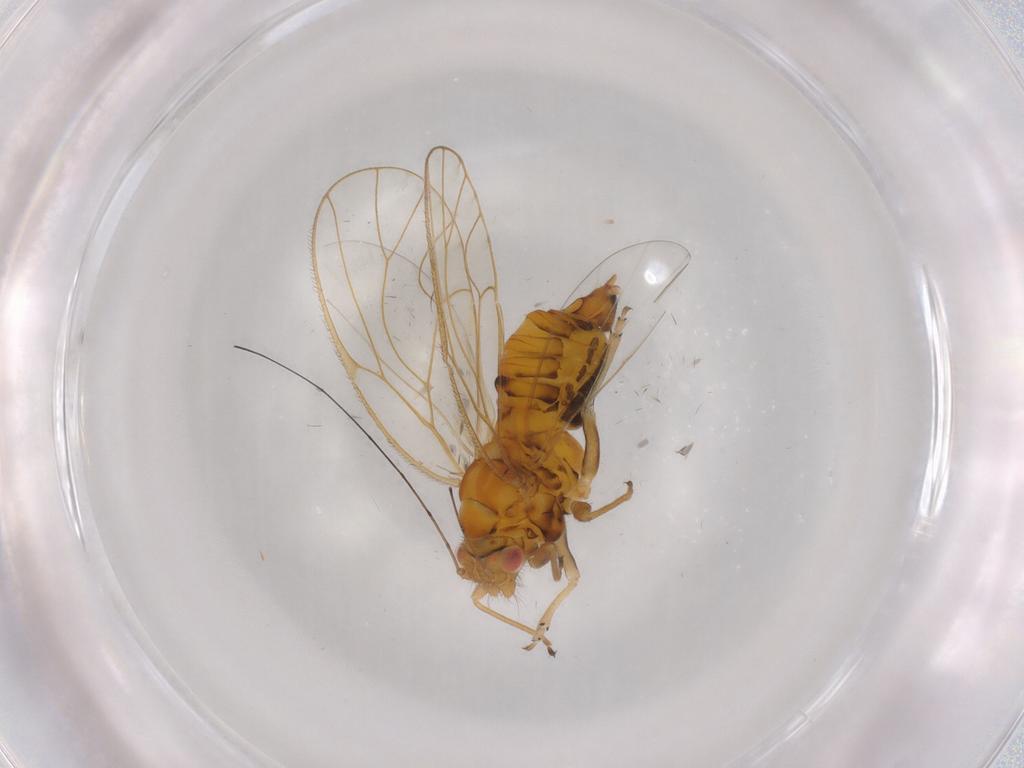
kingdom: Animalia
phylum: Arthropoda
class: Insecta
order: Hemiptera
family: Psyllidae
